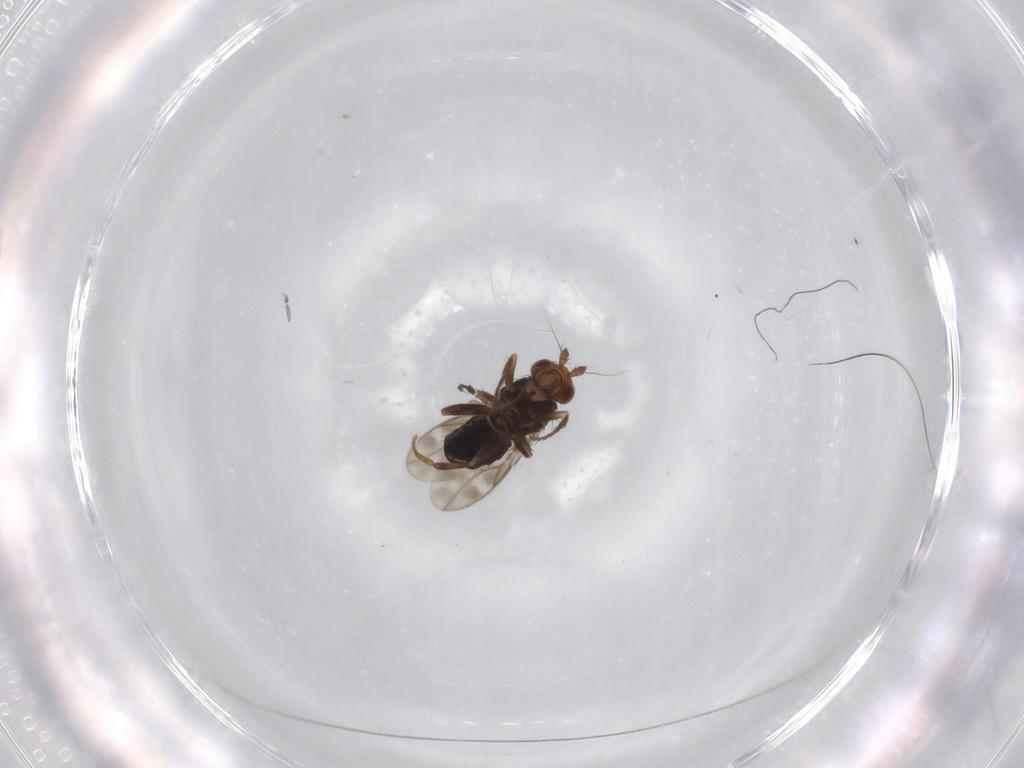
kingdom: Animalia
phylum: Arthropoda
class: Insecta
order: Diptera
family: Sphaeroceridae
